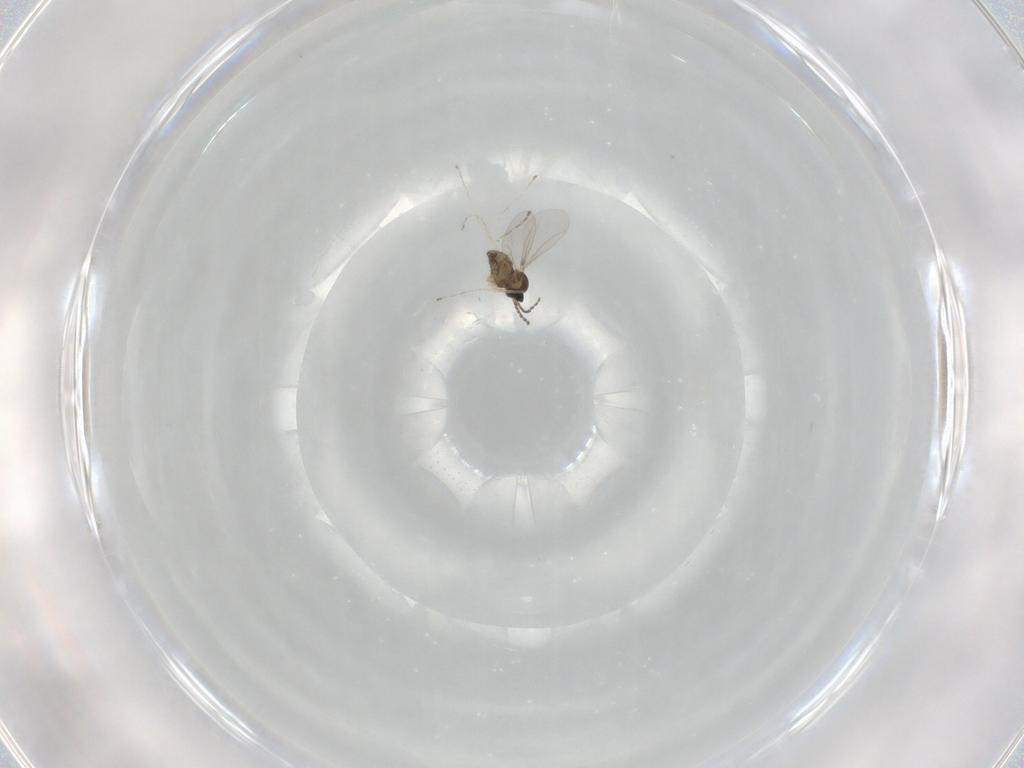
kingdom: Animalia
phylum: Arthropoda
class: Insecta
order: Diptera
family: Cecidomyiidae
